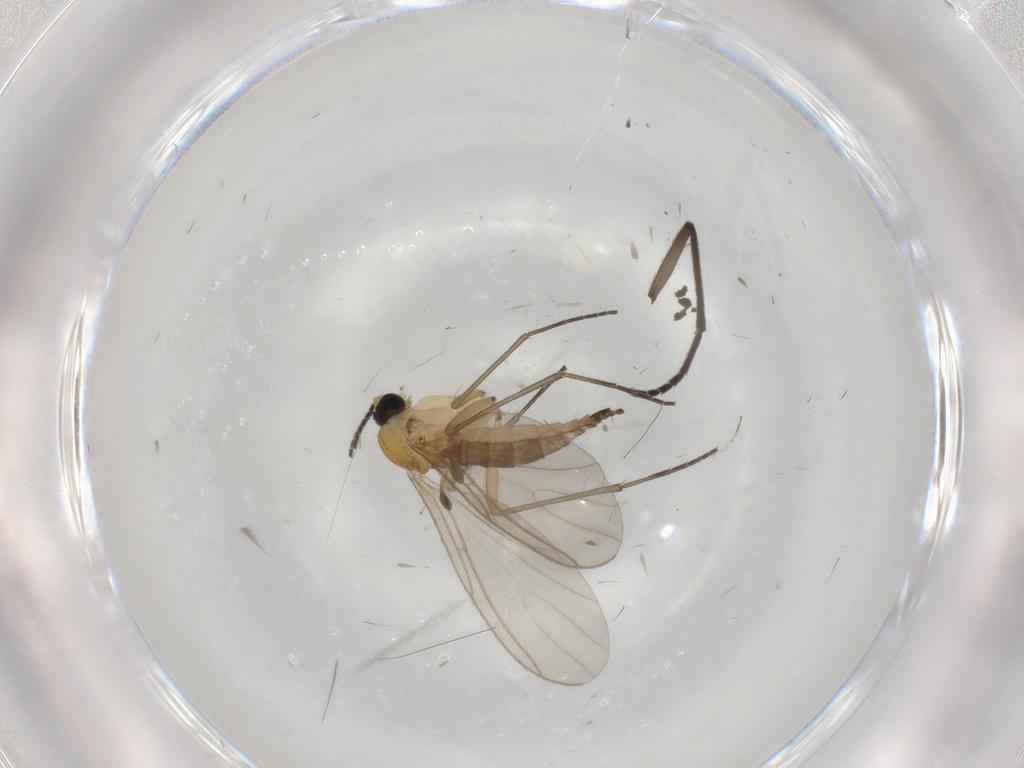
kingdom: Animalia
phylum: Arthropoda
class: Insecta
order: Diptera
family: Sciaridae
